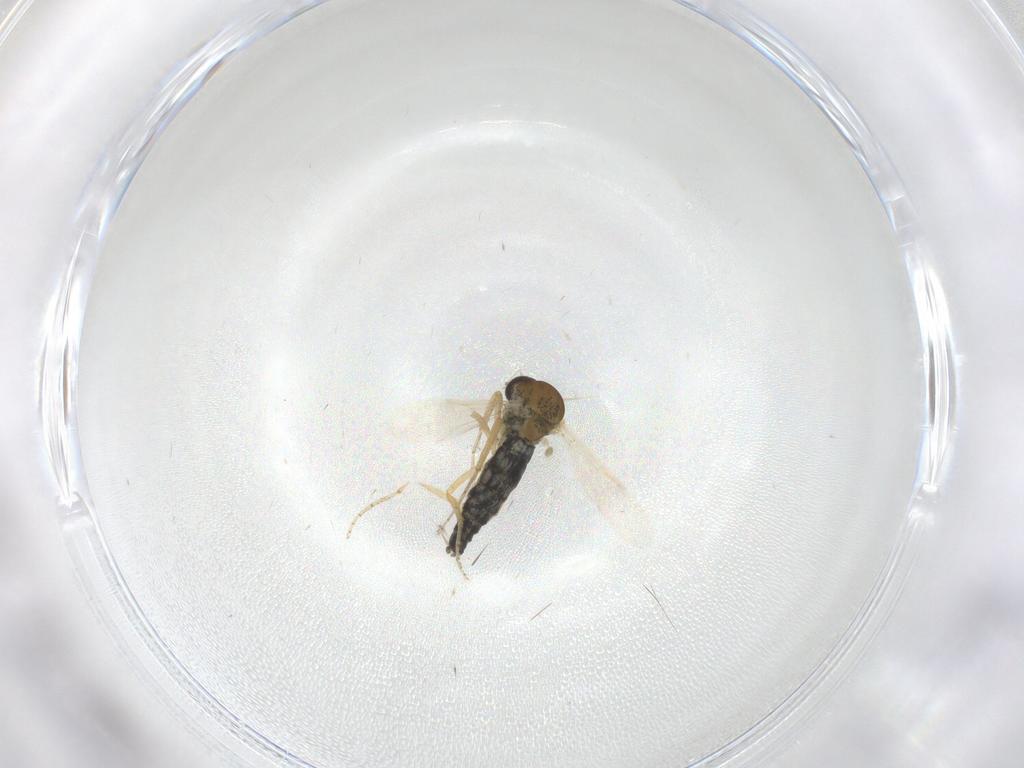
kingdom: Animalia
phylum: Arthropoda
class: Insecta
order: Diptera
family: Ceratopogonidae
